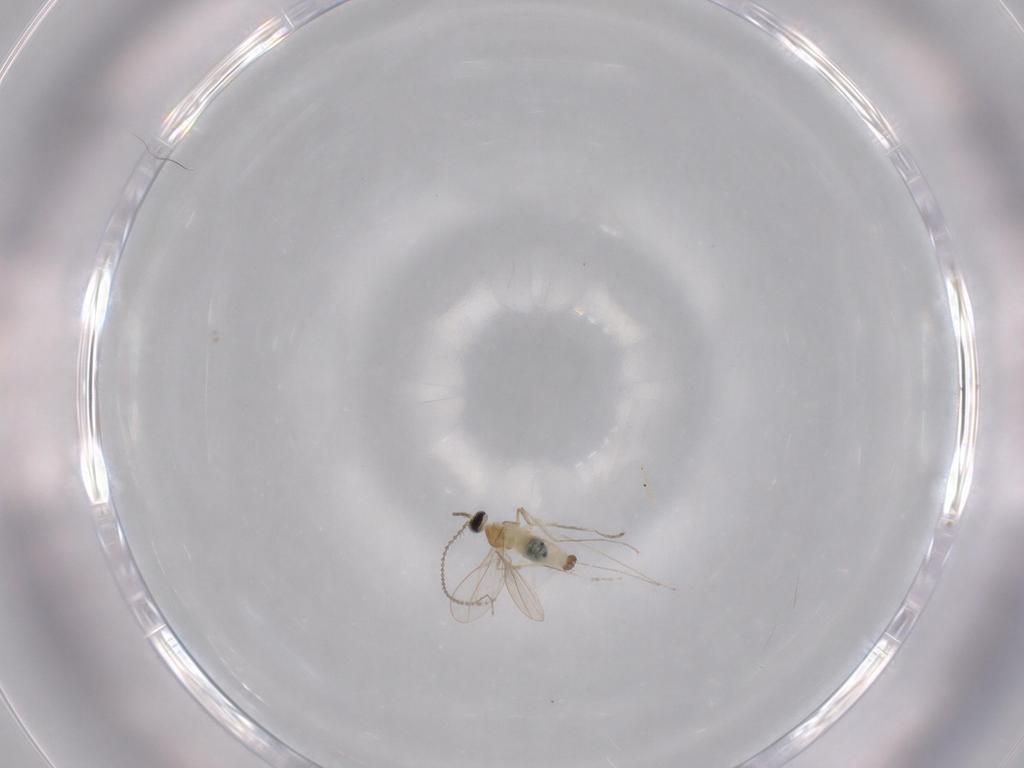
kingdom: Animalia
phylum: Arthropoda
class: Insecta
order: Diptera
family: Cecidomyiidae
